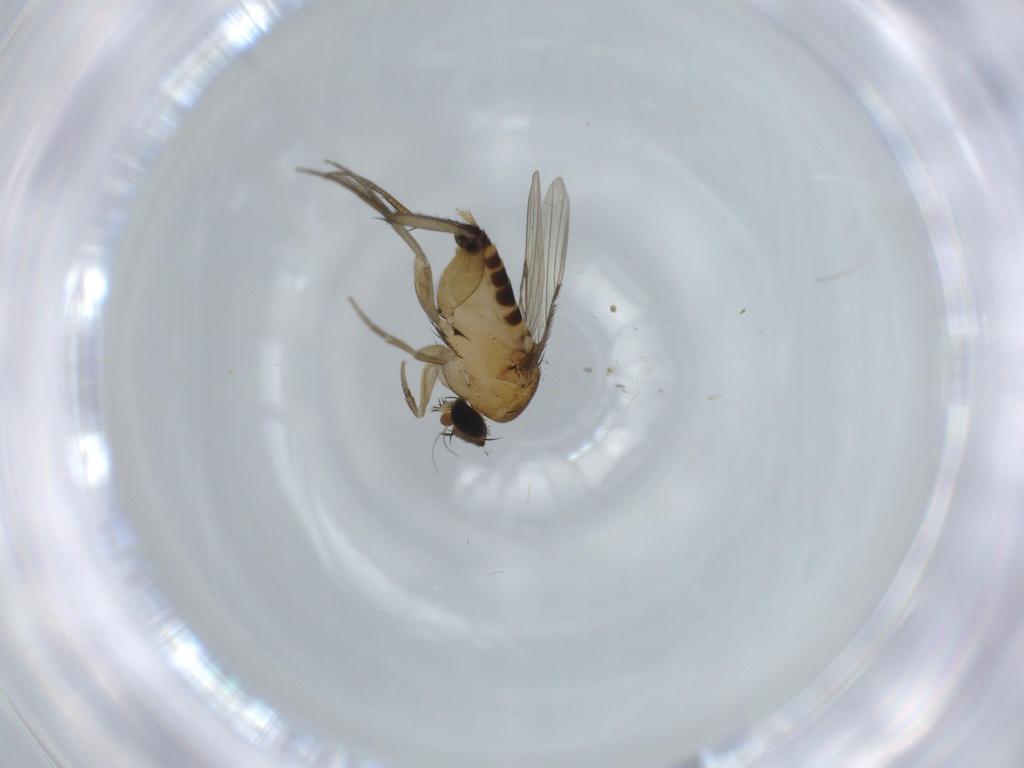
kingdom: Animalia
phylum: Arthropoda
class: Insecta
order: Diptera
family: Phoridae
